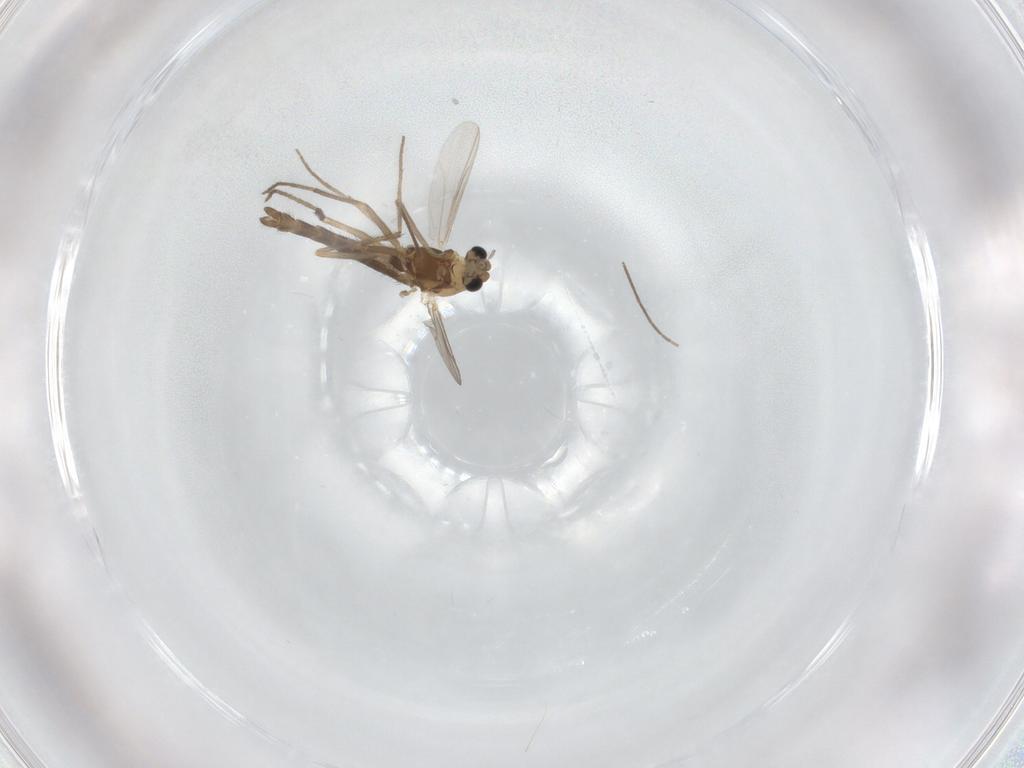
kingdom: Animalia
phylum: Arthropoda
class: Insecta
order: Diptera
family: Chironomidae
